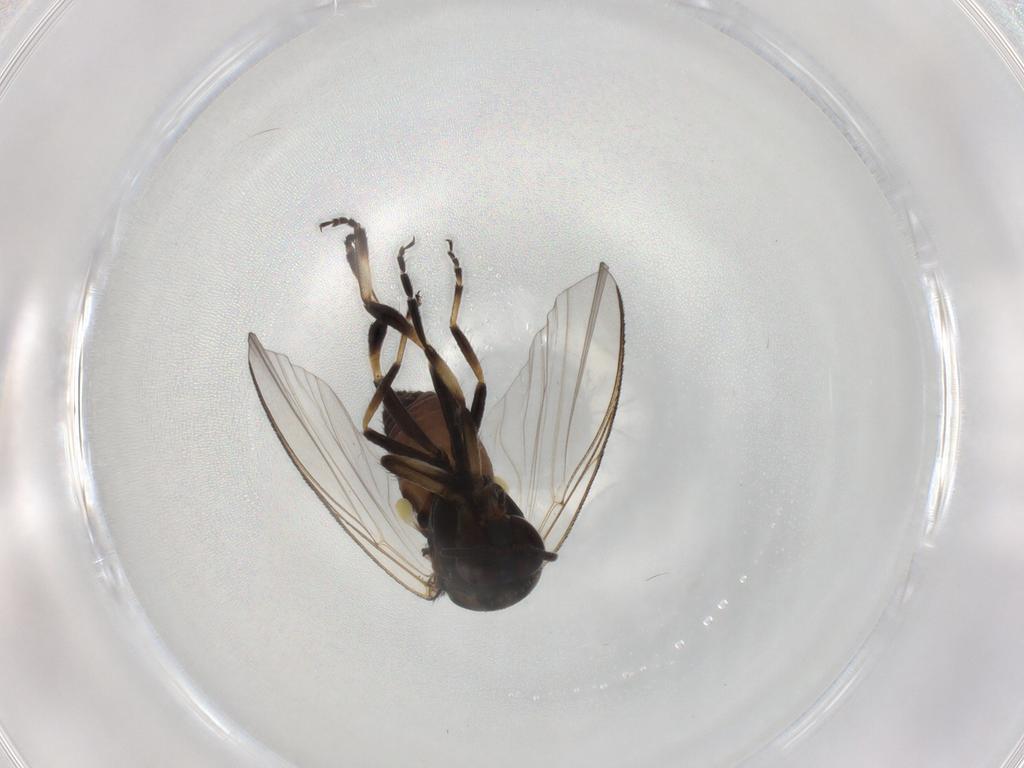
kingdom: Animalia
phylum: Arthropoda
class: Insecta
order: Diptera
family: Simuliidae
